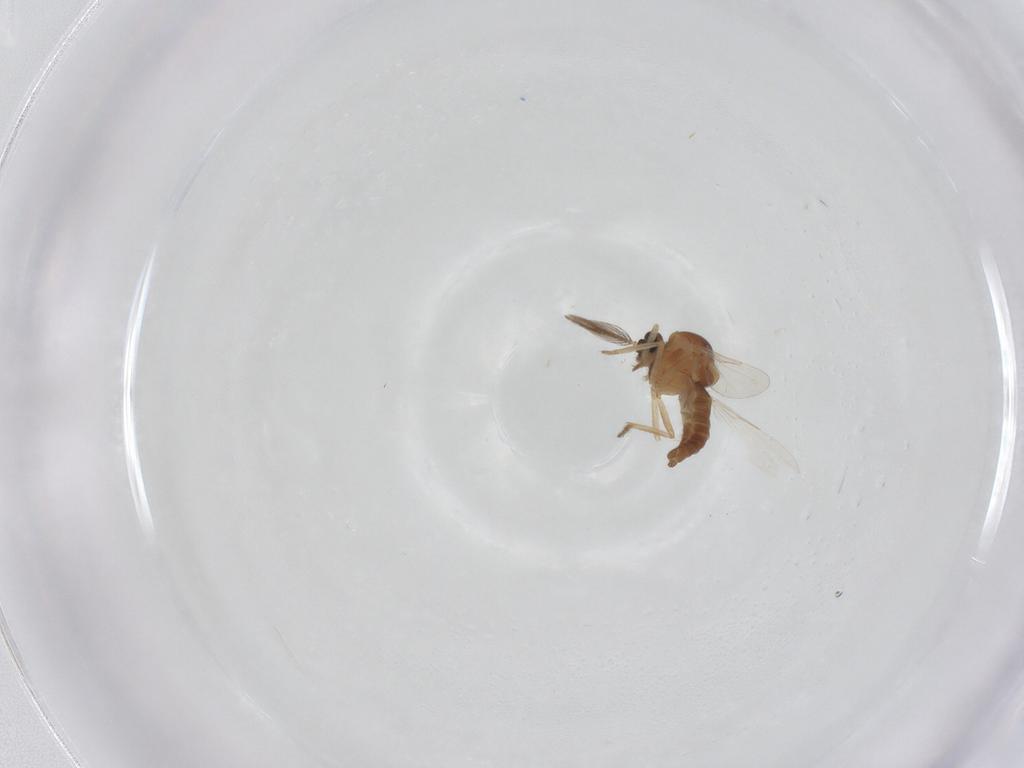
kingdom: Animalia
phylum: Arthropoda
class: Insecta
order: Diptera
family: Ceratopogonidae
